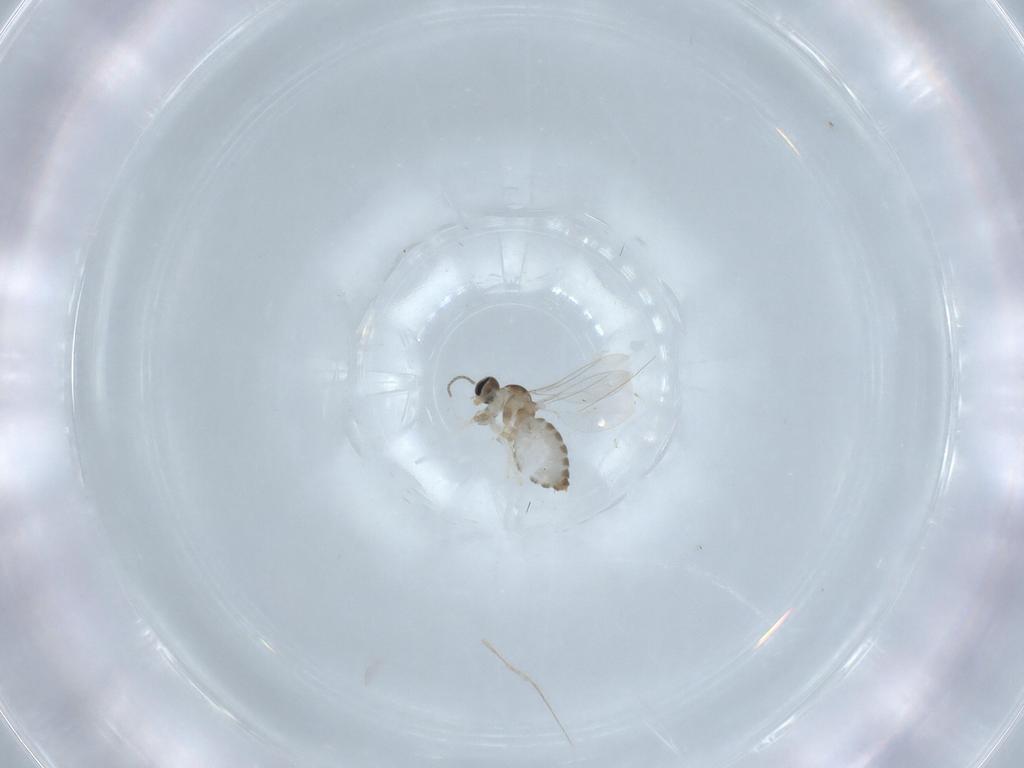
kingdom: Animalia
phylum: Arthropoda
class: Insecta
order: Diptera
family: Cecidomyiidae
